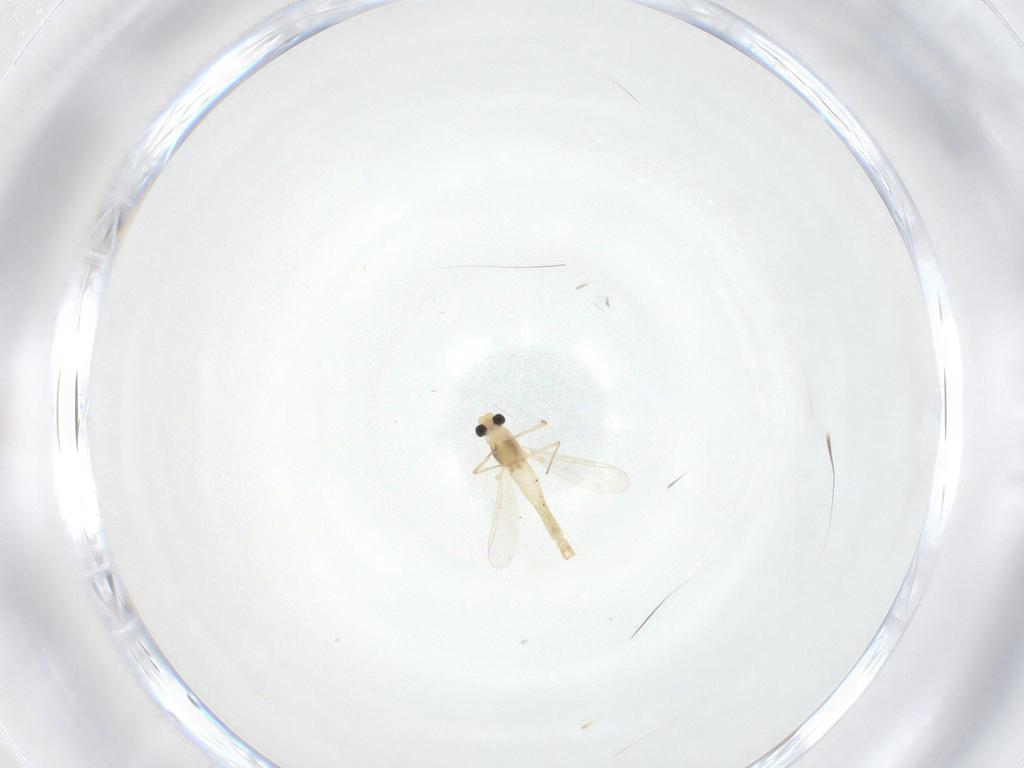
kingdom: Animalia
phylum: Arthropoda
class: Insecta
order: Diptera
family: Chironomidae
